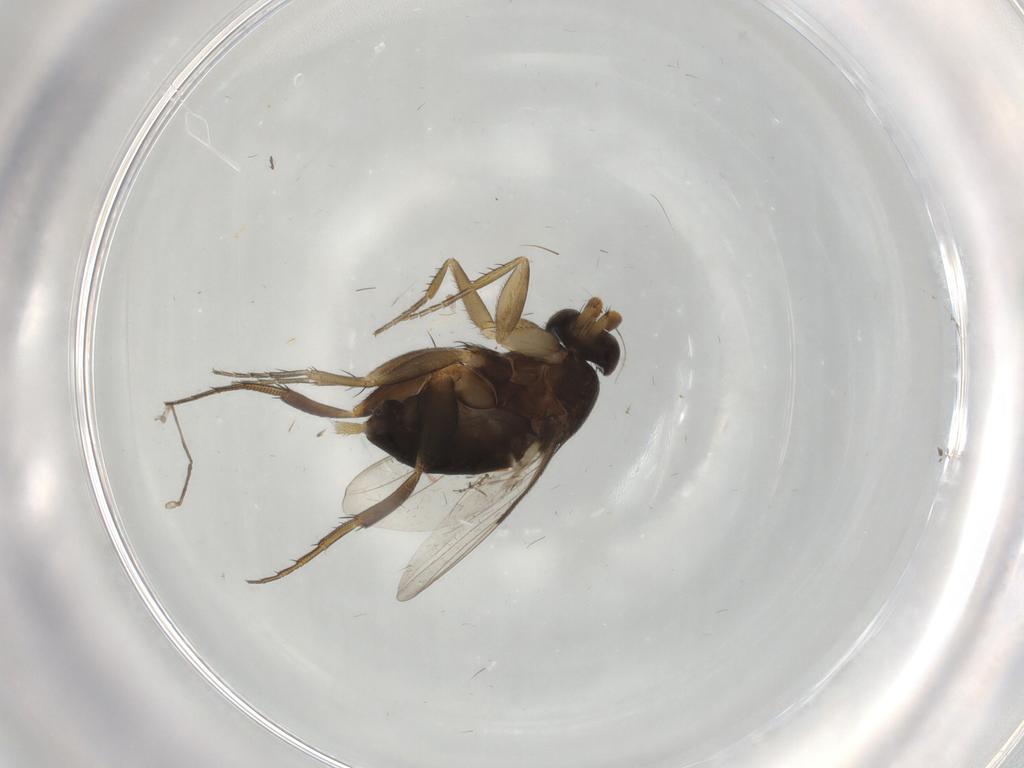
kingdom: Animalia
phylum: Arthropoda
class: Insecta
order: Diptera
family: Phoridae
